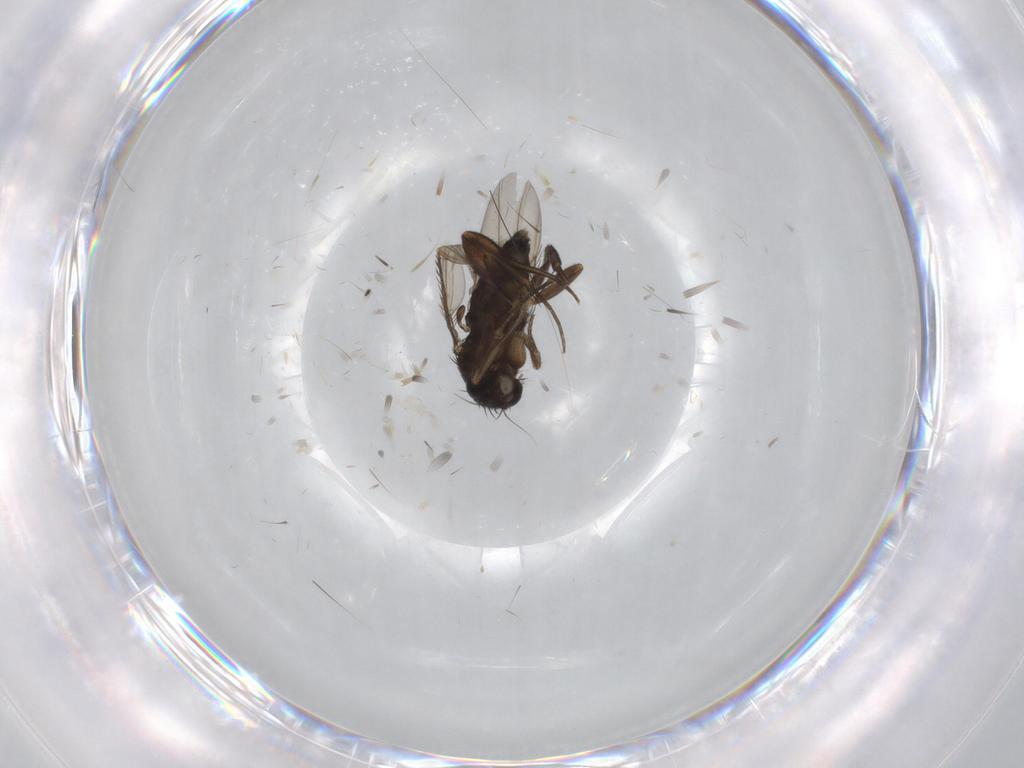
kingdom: Animalia
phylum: Arthropoda
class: Insecta
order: Diptera
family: Phoridae
